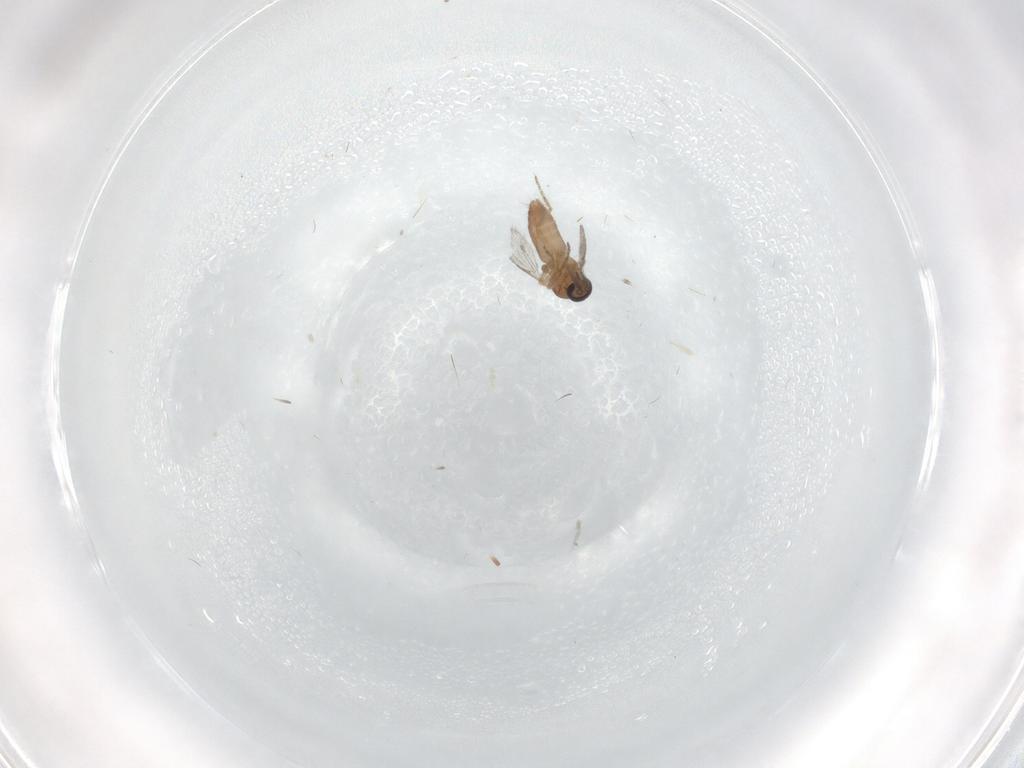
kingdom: Animalia
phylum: Arthropoda
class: Insecta
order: Diptera
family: Ceratopogonidae
